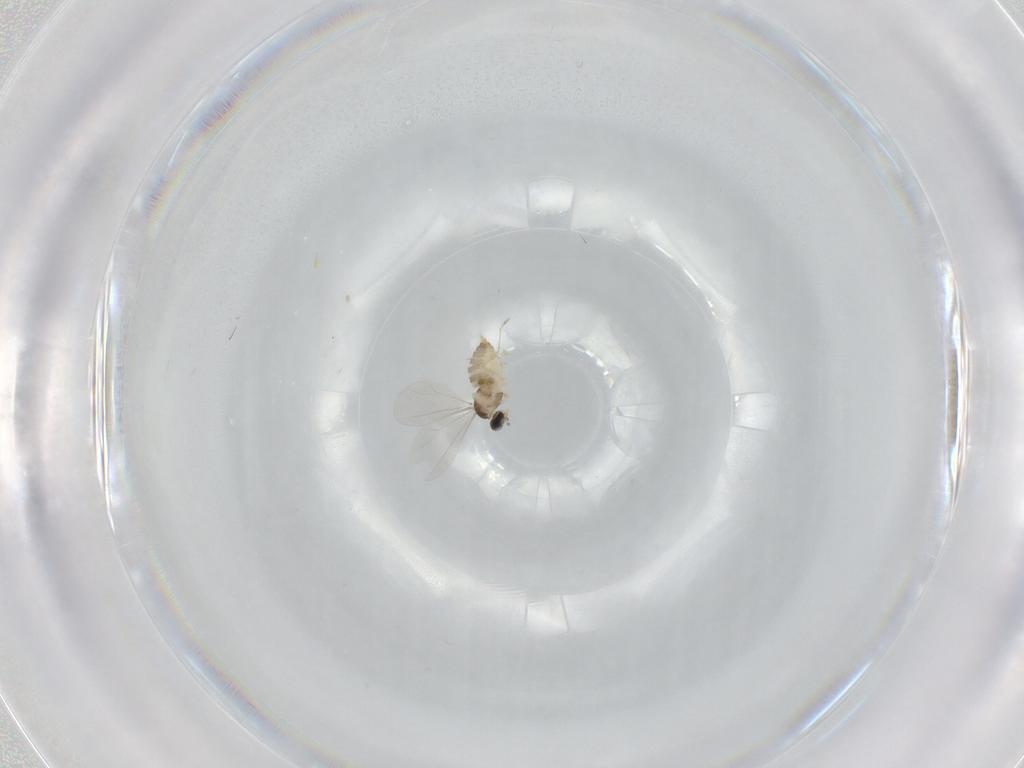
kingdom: Animalia
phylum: Arthropoda
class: Insecta
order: Diptera
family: Cecidomyiidae
